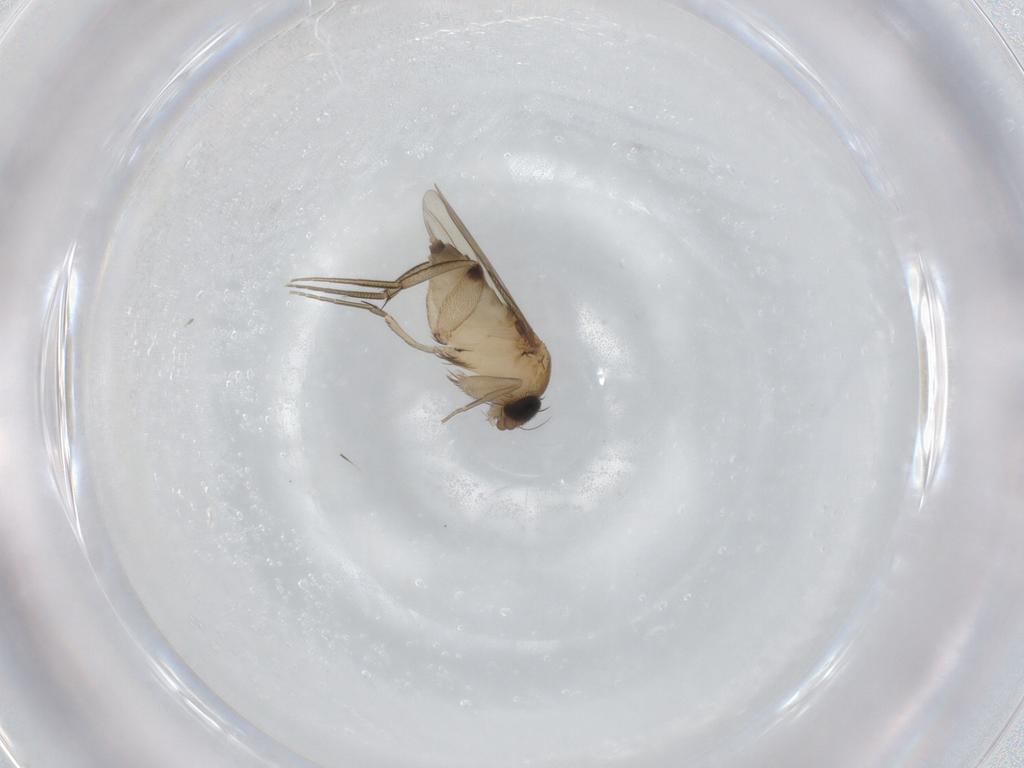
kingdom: Animalia
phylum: Arthropoda
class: Insecta
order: Diptera
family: Phoridae
